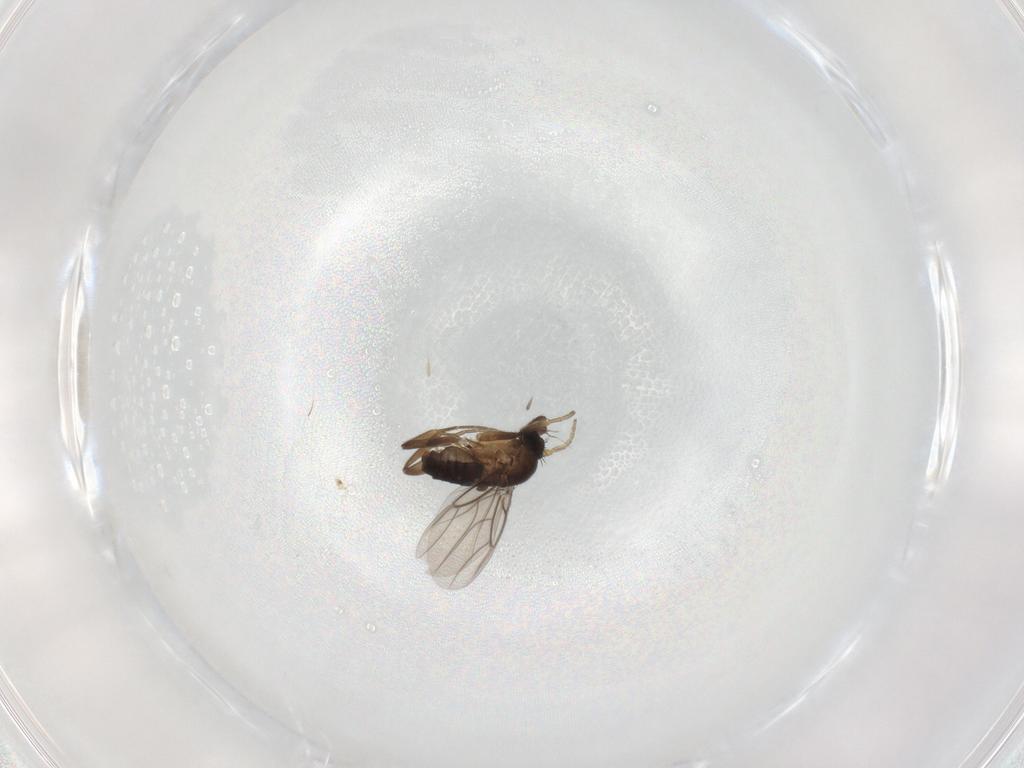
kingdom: Animalia
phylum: Arthropoda
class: Insecta
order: Diptera
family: Phoridae
